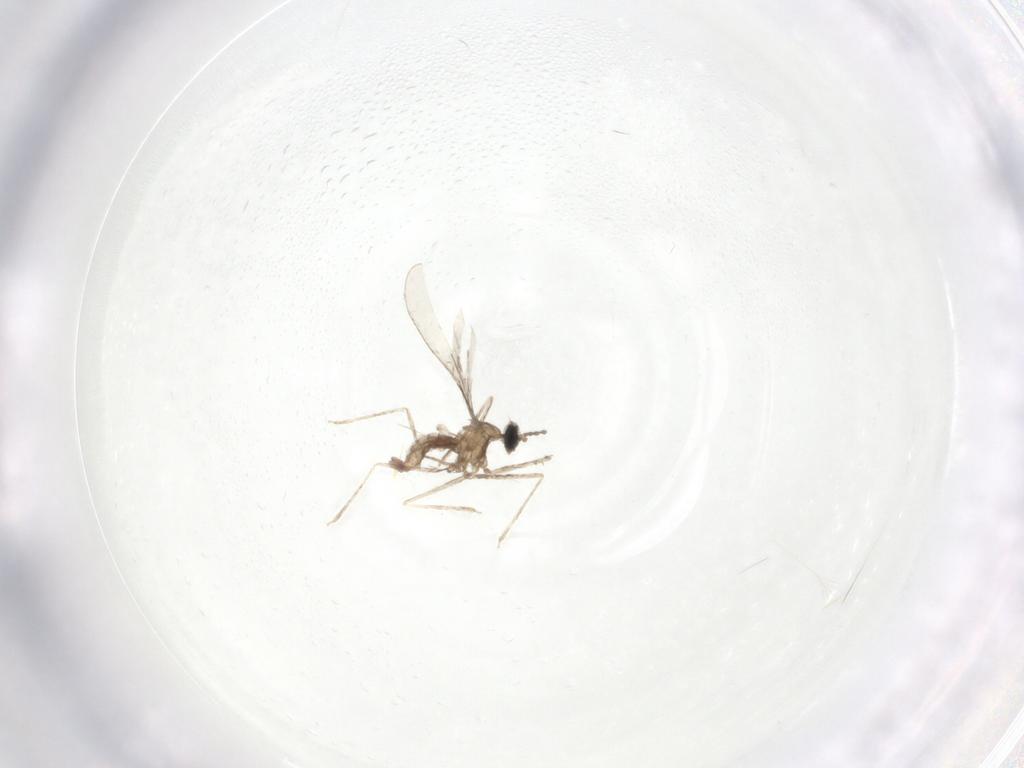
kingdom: Animalia
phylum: Arthropoda
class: Insecta
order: Diptera
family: Cecidomyiidae
